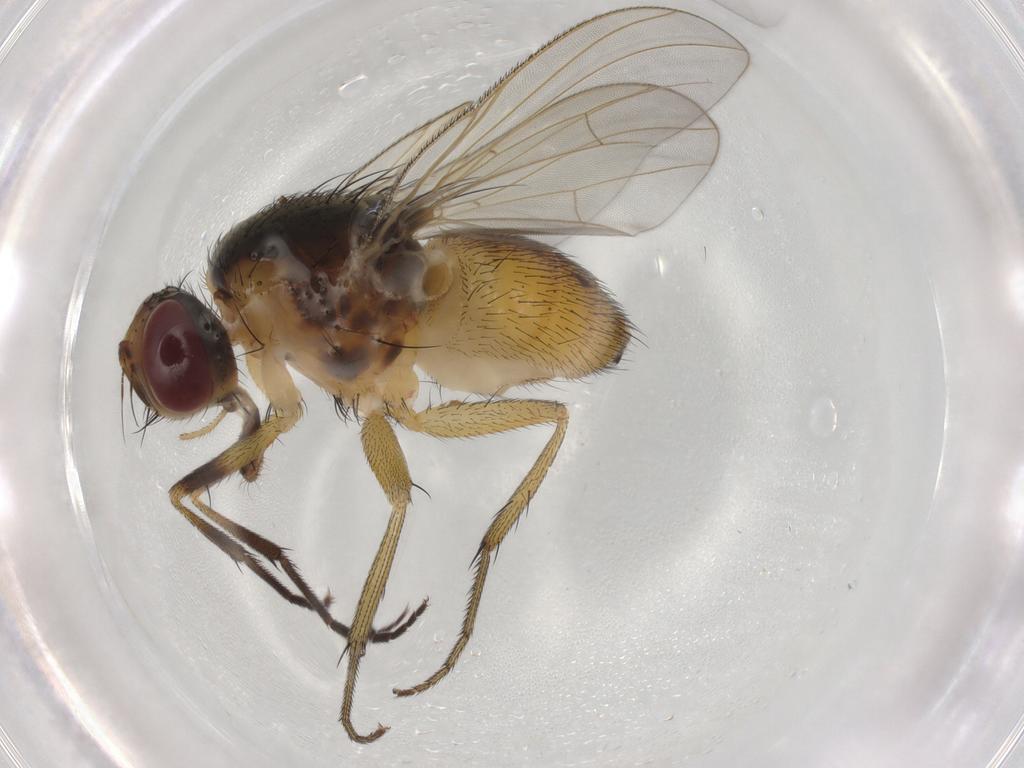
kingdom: Animalia
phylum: Arthropoda
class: Insecta
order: Diptera
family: Muscidae
